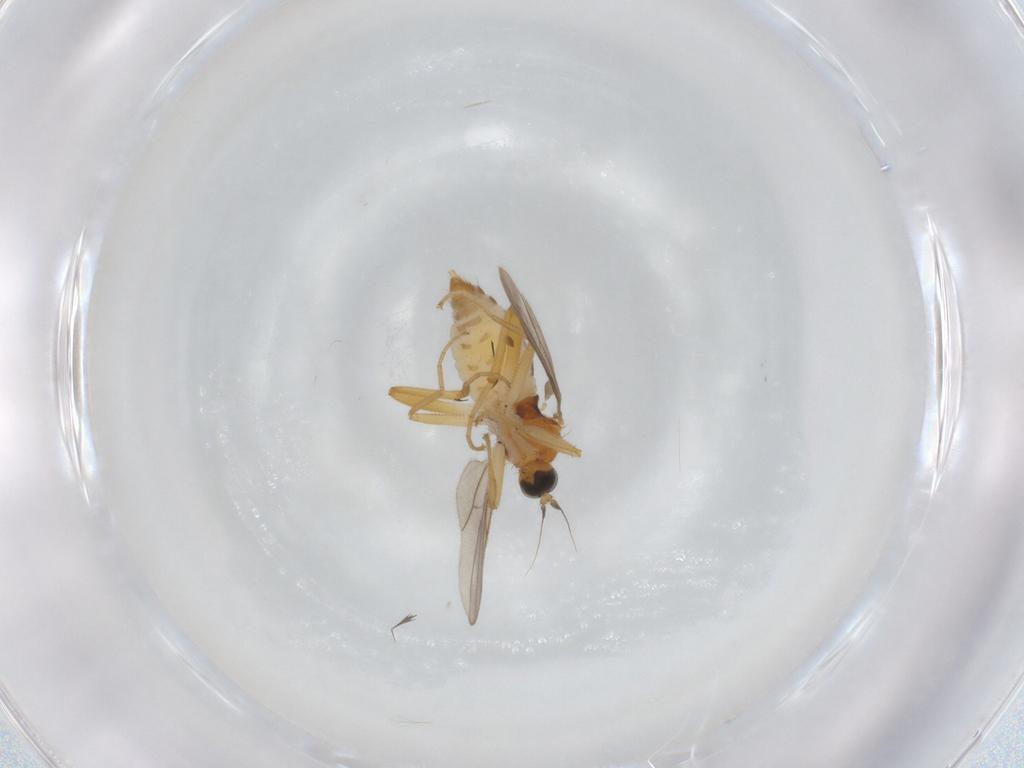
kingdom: Animalia
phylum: Arthropoda
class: Insecta
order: Diptera
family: Hybotidae
